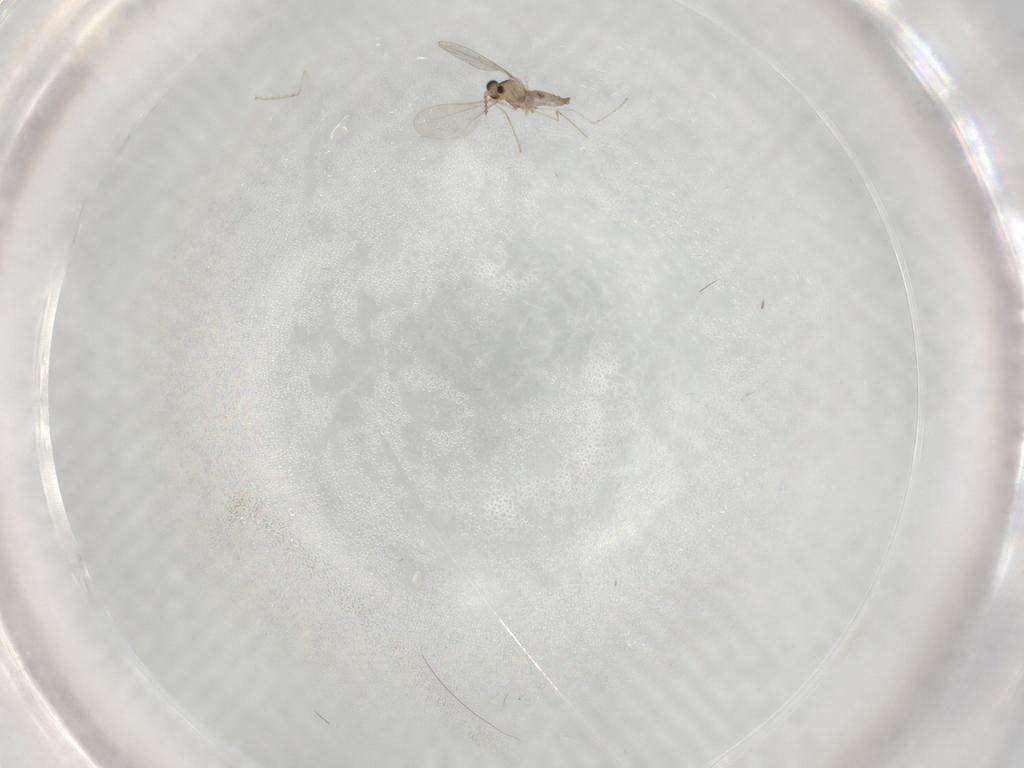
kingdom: Animalia
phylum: Arthropoda
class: Insecta
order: Diptera
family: Cecidomyiidae
